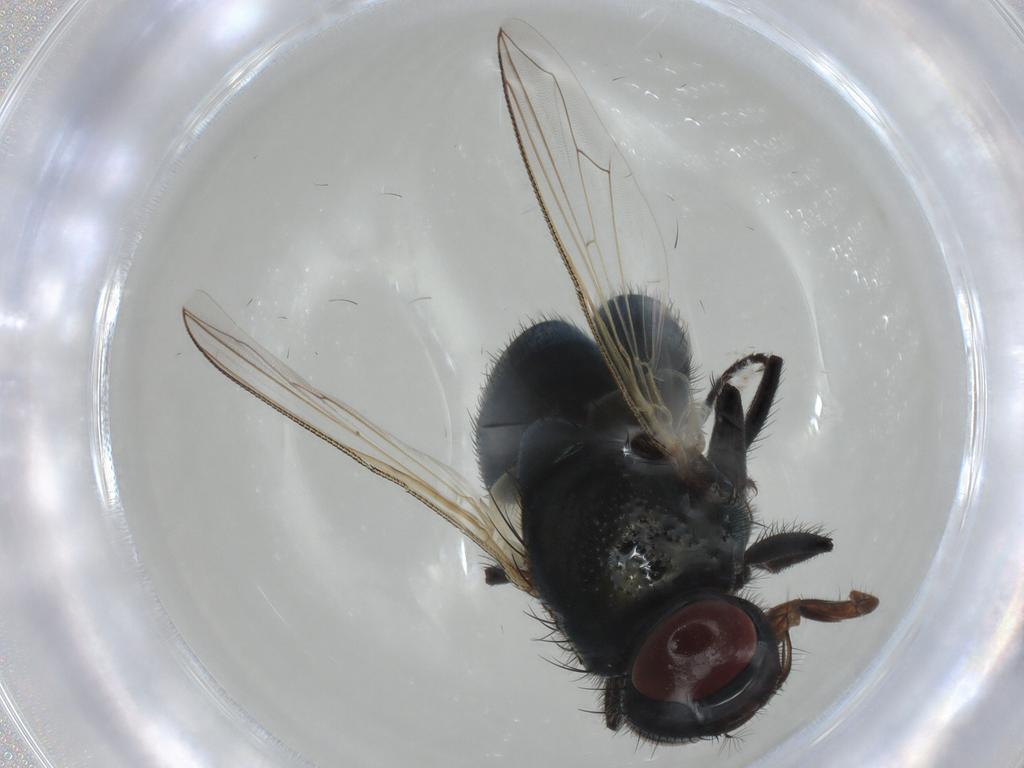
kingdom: Animalia
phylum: Arthropoda
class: Insecta
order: Diptera
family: Muscidae
